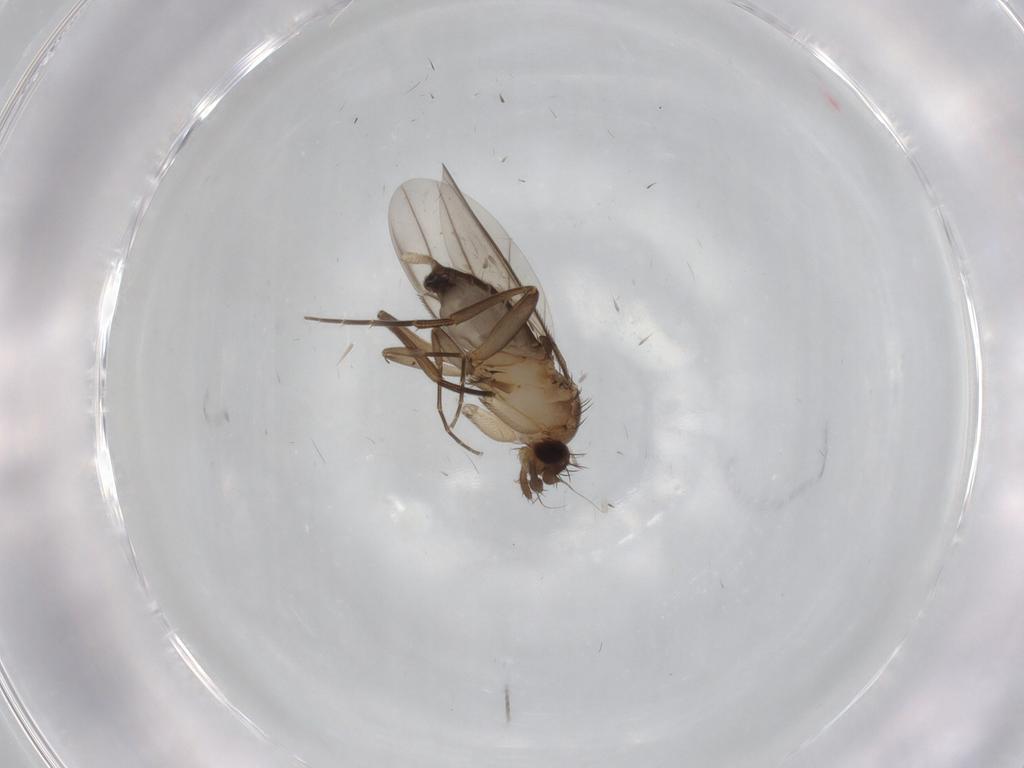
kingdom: Animalia
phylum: Arthropoda
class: Insecta
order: Diptera
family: Phoridae
